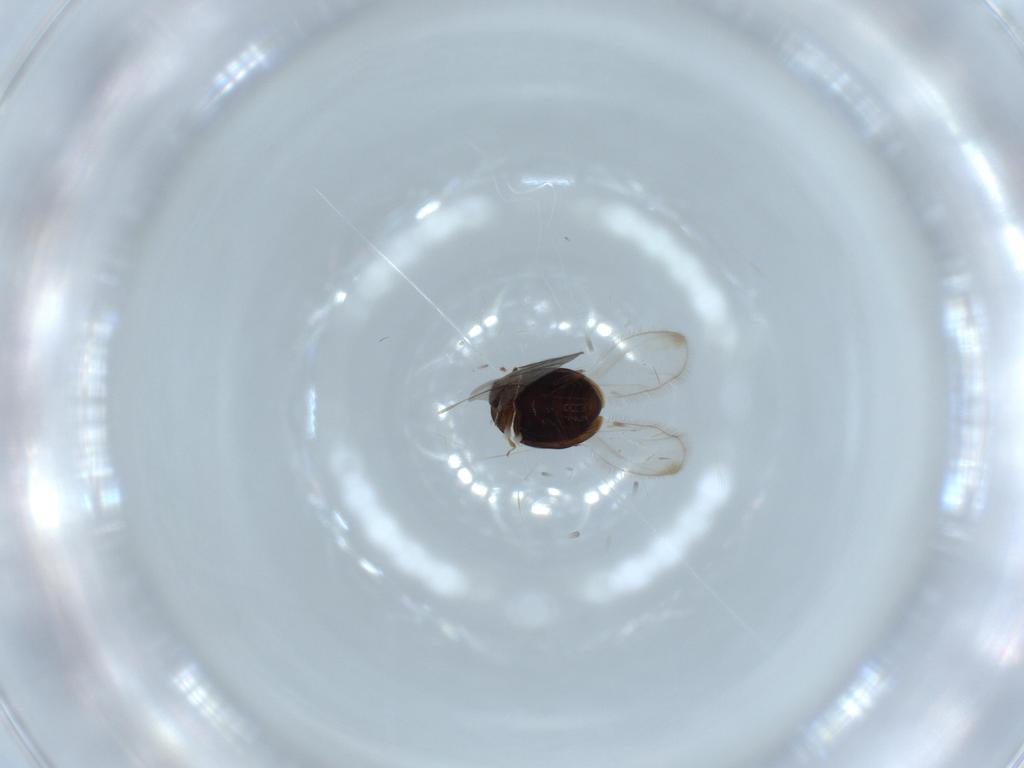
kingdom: Animalia
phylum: Arthropoda
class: Insecta
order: Coleoptera
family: Corylophidae
